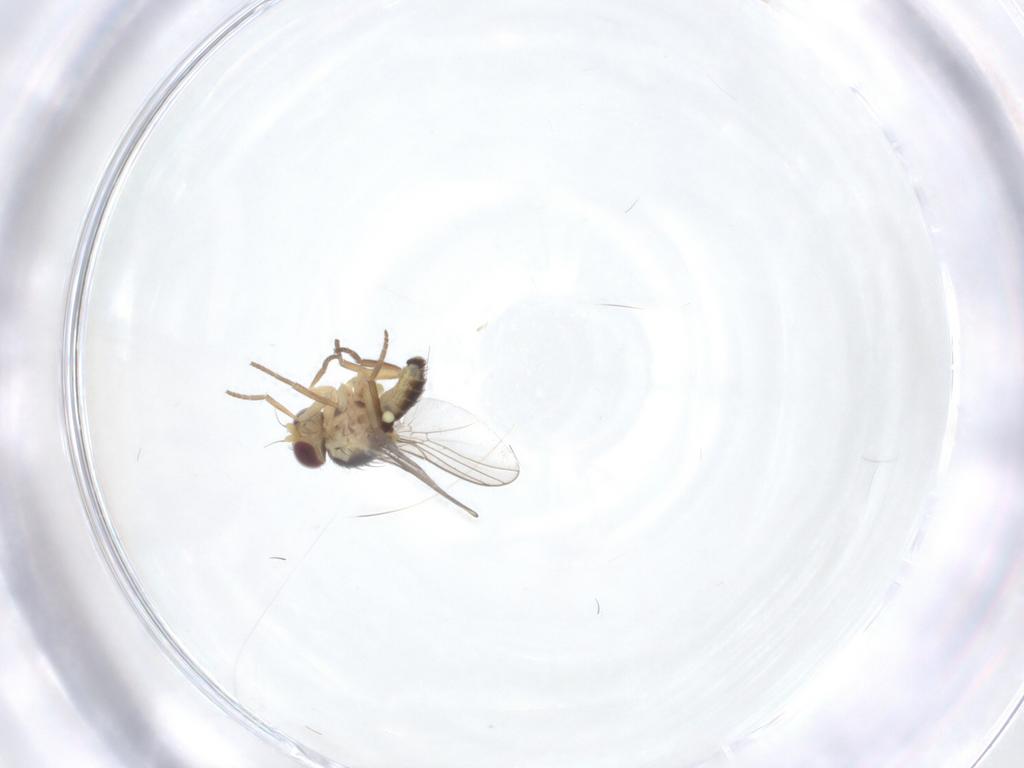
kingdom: Animalia
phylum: Arthropoda
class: Insecta
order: Diptera
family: Agromyzidae
